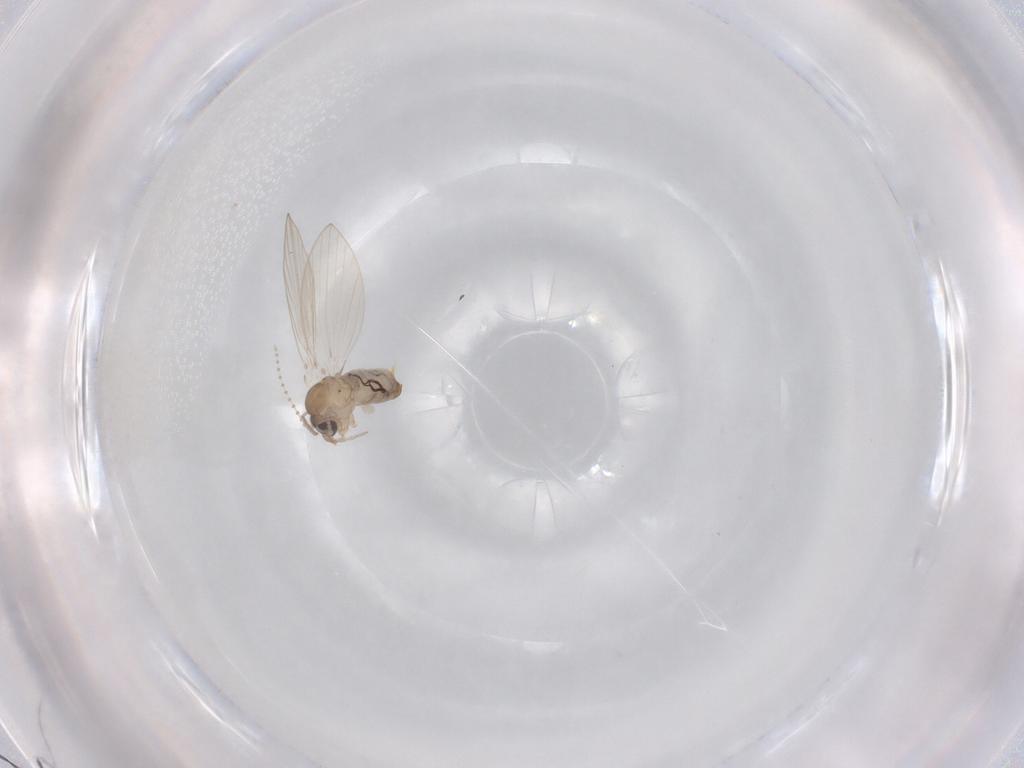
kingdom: Animalia
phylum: Arthropoda
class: Insecta
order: Diptera
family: Psychodidae
